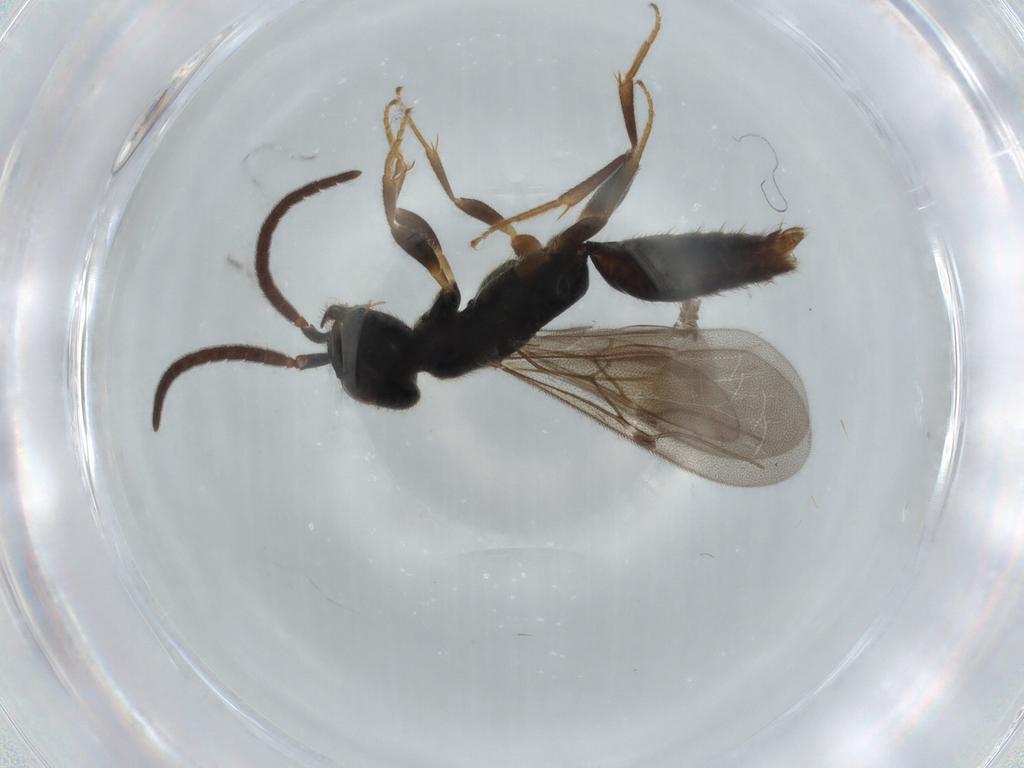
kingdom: Animalia
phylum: Arthropoda
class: Insecta
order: Hymenoptera
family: Bethylidae
